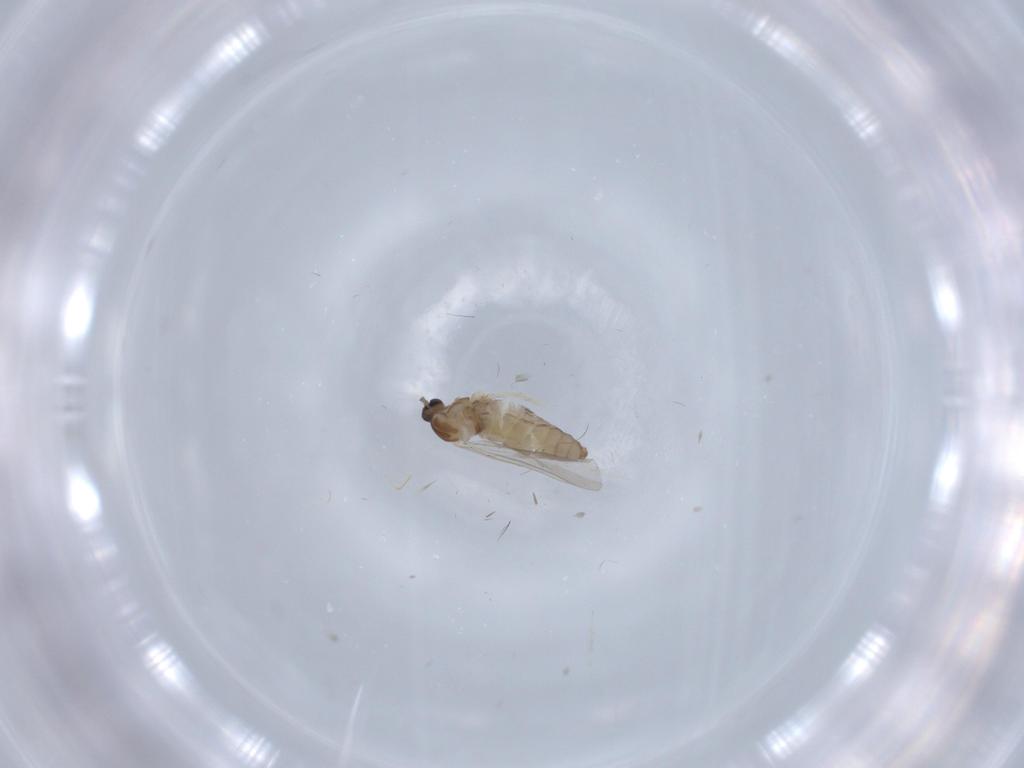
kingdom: Animalia
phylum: Arthropoda
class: Insecta
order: Diptera
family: Cecidomyiidae
